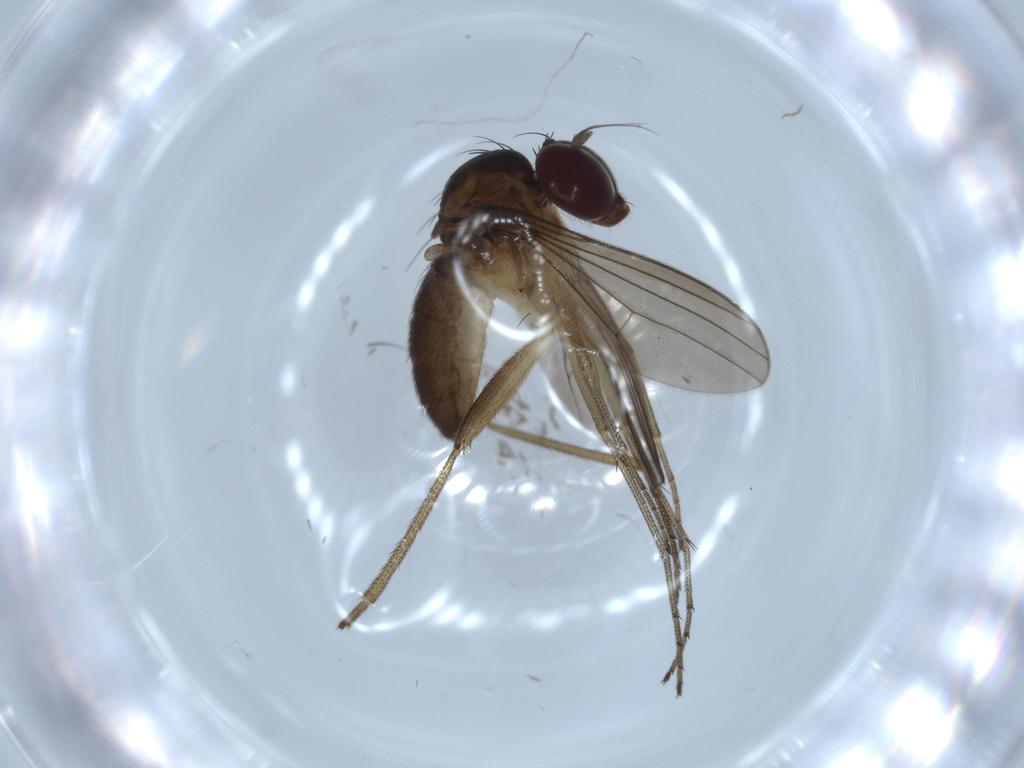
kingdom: Animalia
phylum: Arthropoda
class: Insecta
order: Diptera
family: Dolichopodidae
